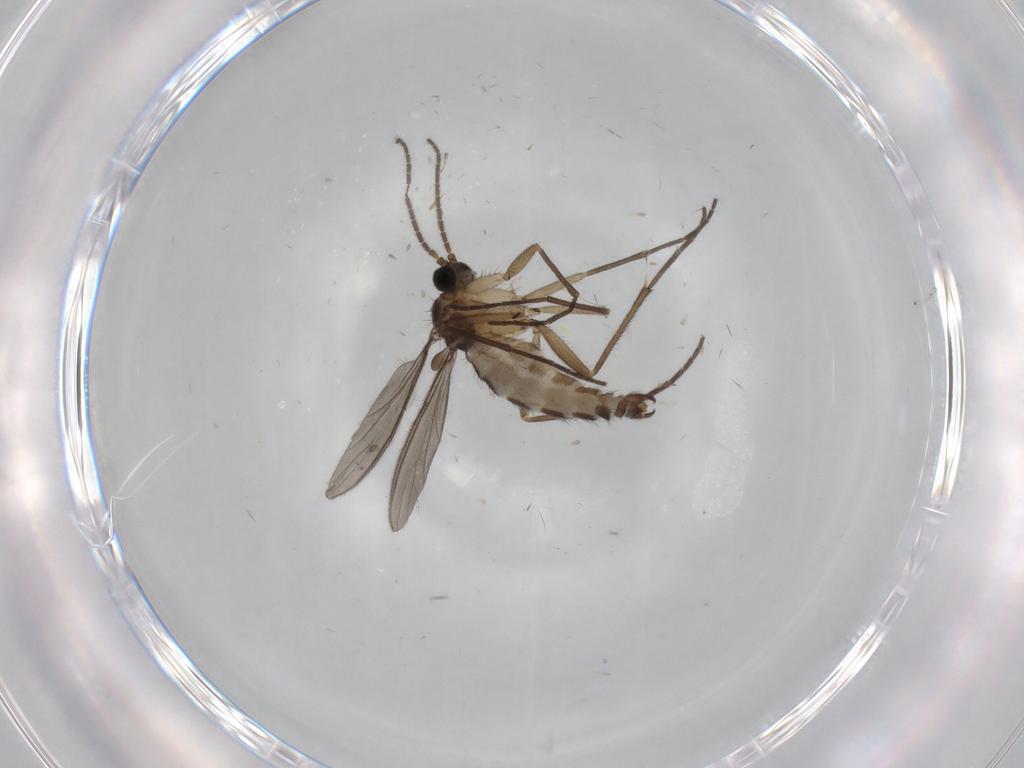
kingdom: Animalia
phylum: Arthropoda
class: Insecta
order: Diptera
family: Sciaridae
